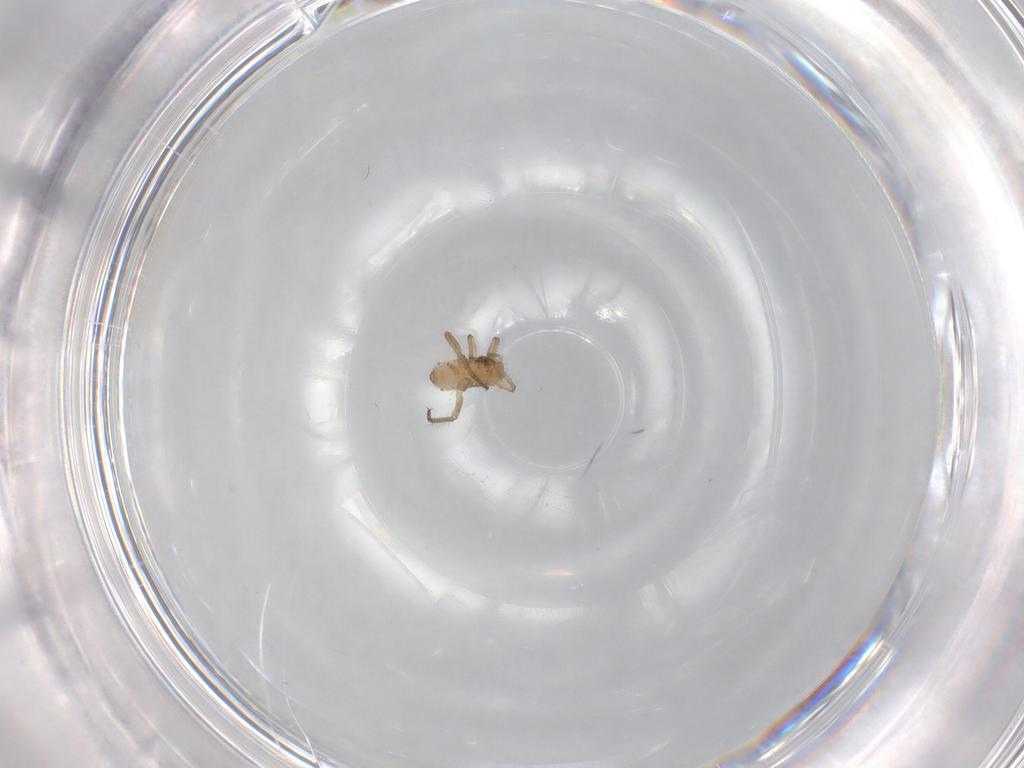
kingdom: Animalia
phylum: Arthropoda
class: Insecta
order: Hemiptera
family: Aphididae
